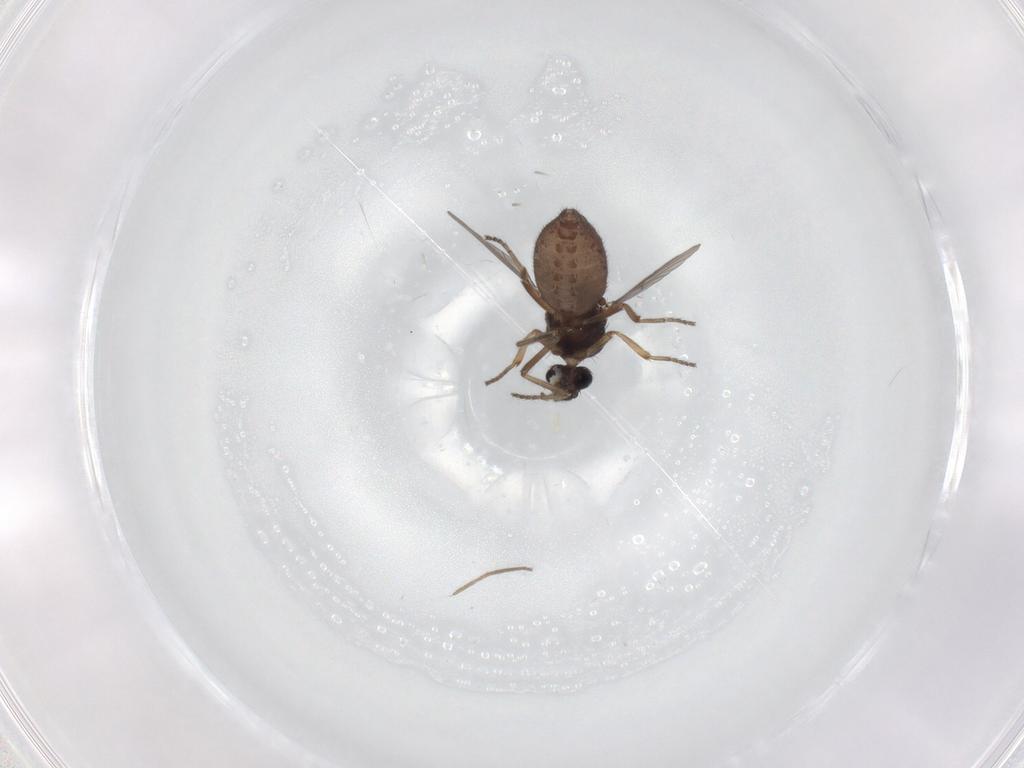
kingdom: Animalia
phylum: Arthropoda
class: Insecta
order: Diptera
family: Ceratopogonidae
